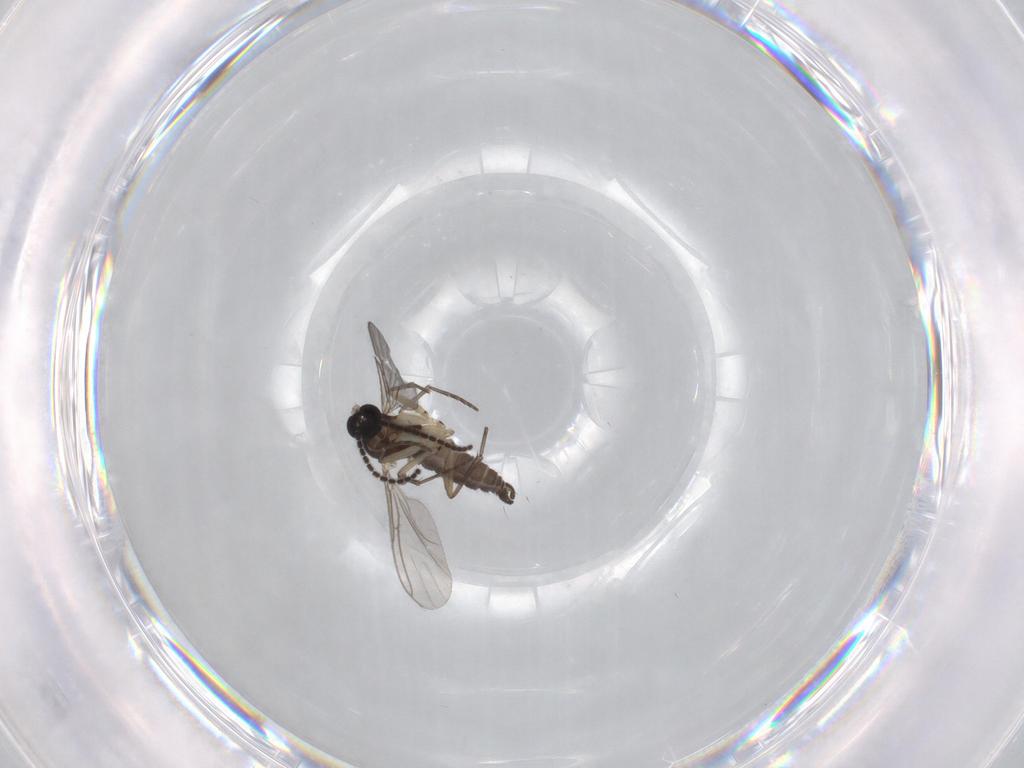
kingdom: Animalia
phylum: Arthropoda
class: Insecta
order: Diptera
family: Sciaridae
